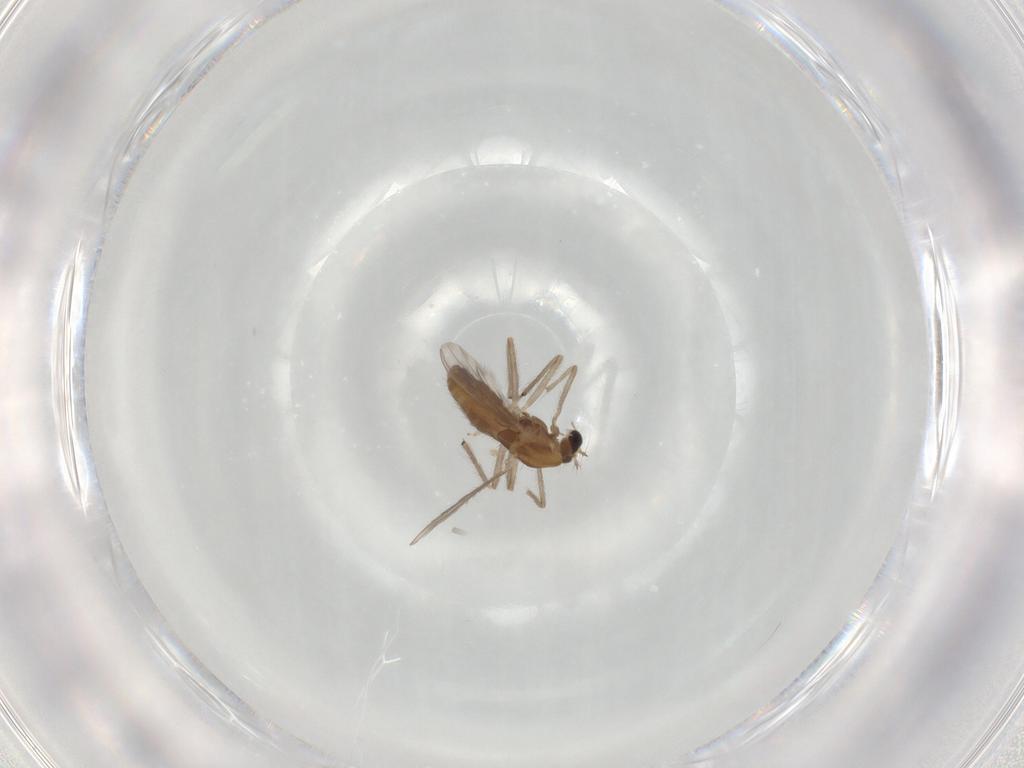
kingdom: Animalia
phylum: Arthropoda
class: Insecta
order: Diptera
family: Chironomidae
